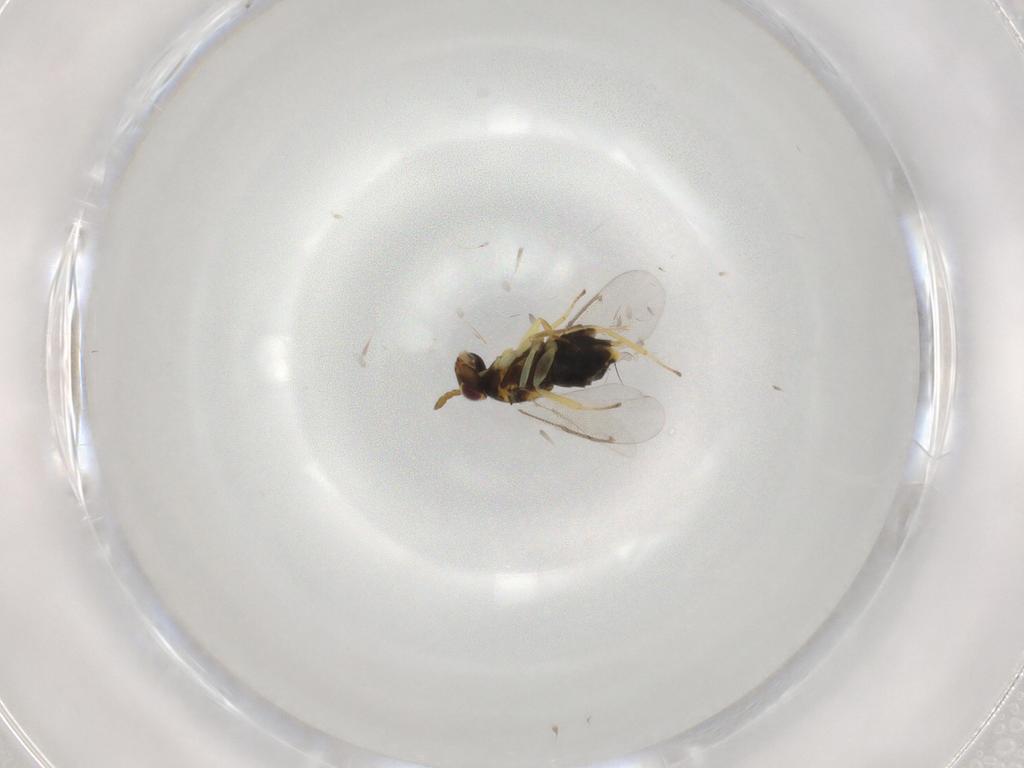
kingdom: Animalia
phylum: Arthropoda
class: Insecta
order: Hymenoptera
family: Aphelinidae
